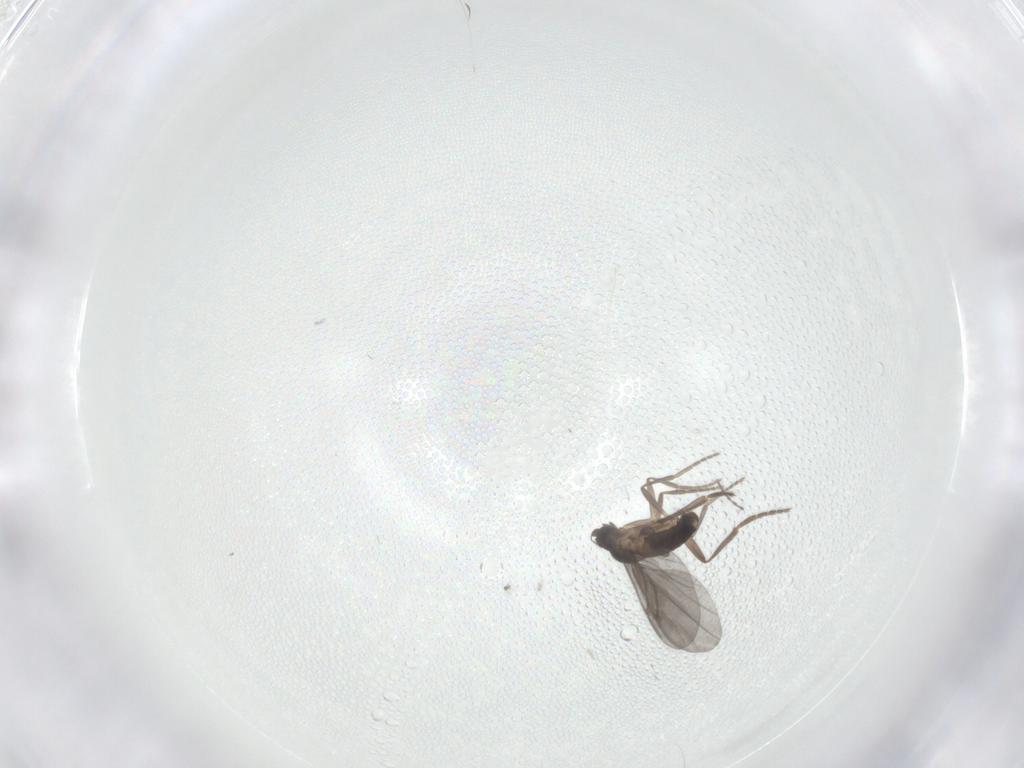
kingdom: Animalia
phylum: Arthropoda
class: Insecta
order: Diptera
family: Phoridae
